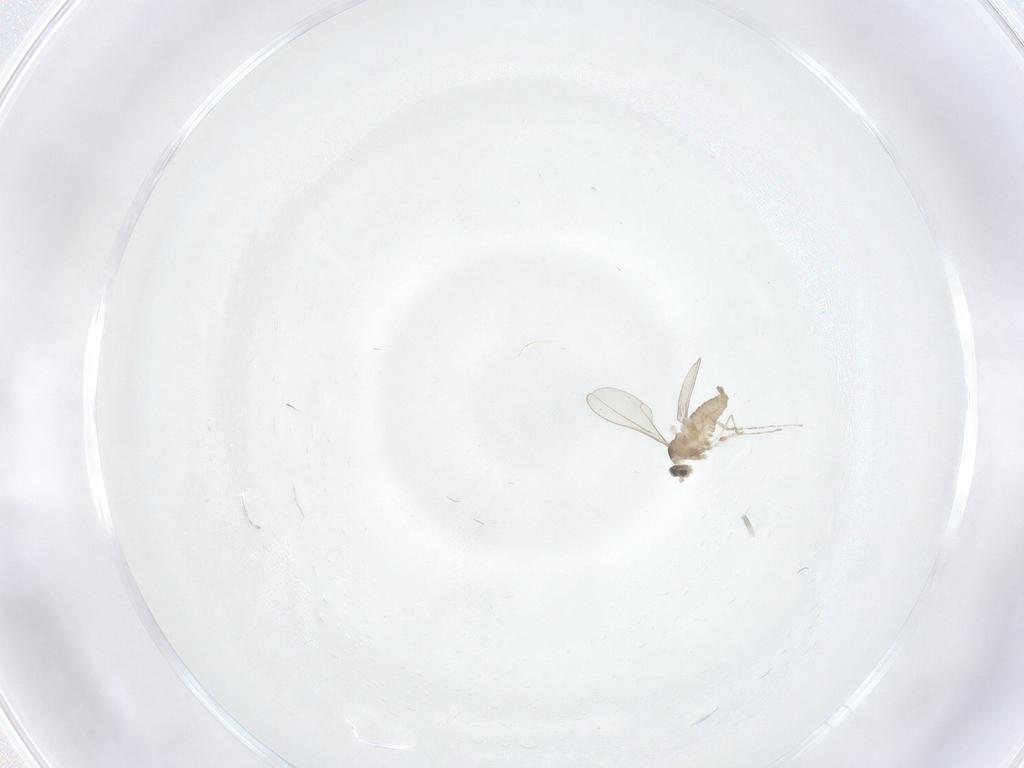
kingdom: Animalia
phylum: Arthropoda
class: Insecta
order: Diptera
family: Cecidomyiidae
